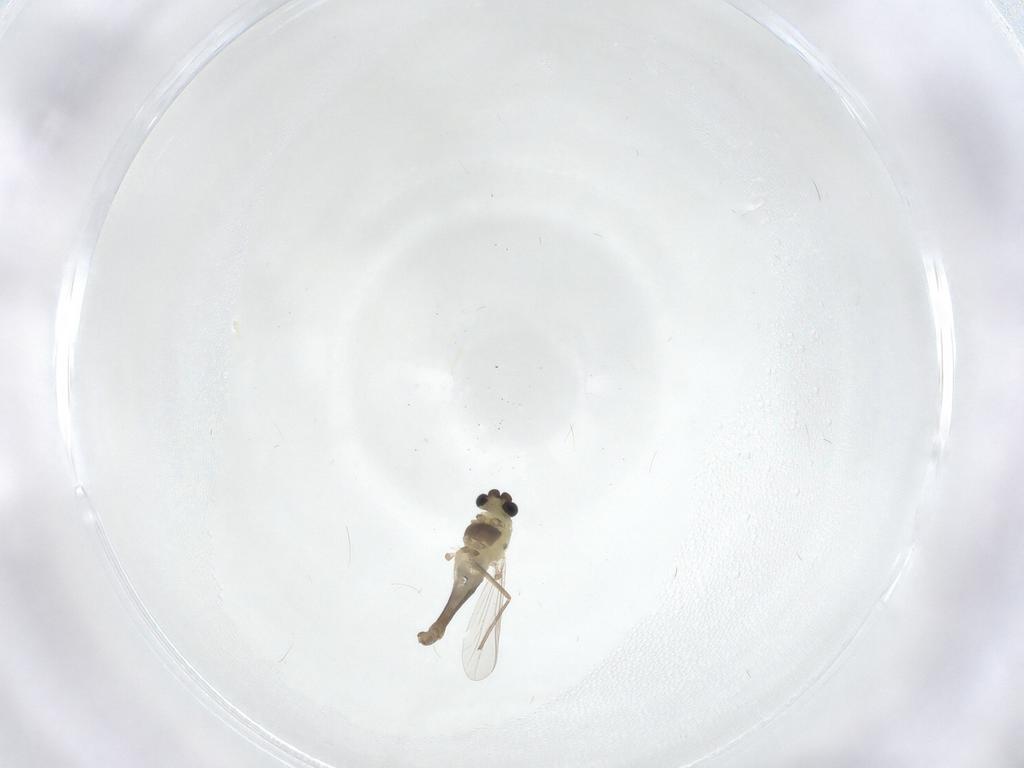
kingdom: Animalia
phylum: Arthropoda
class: Insecta
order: Diptera
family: Chironomidae
